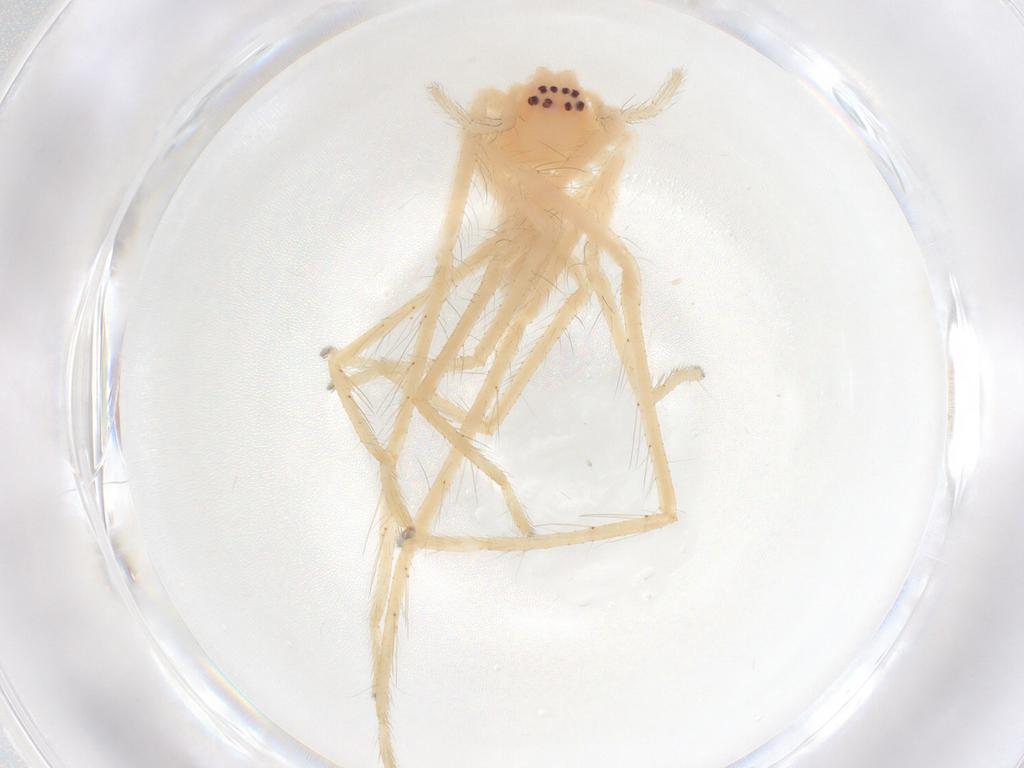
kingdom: Animalia
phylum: Arthropoda
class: Arachnida
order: Araneae
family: Sparassidae
